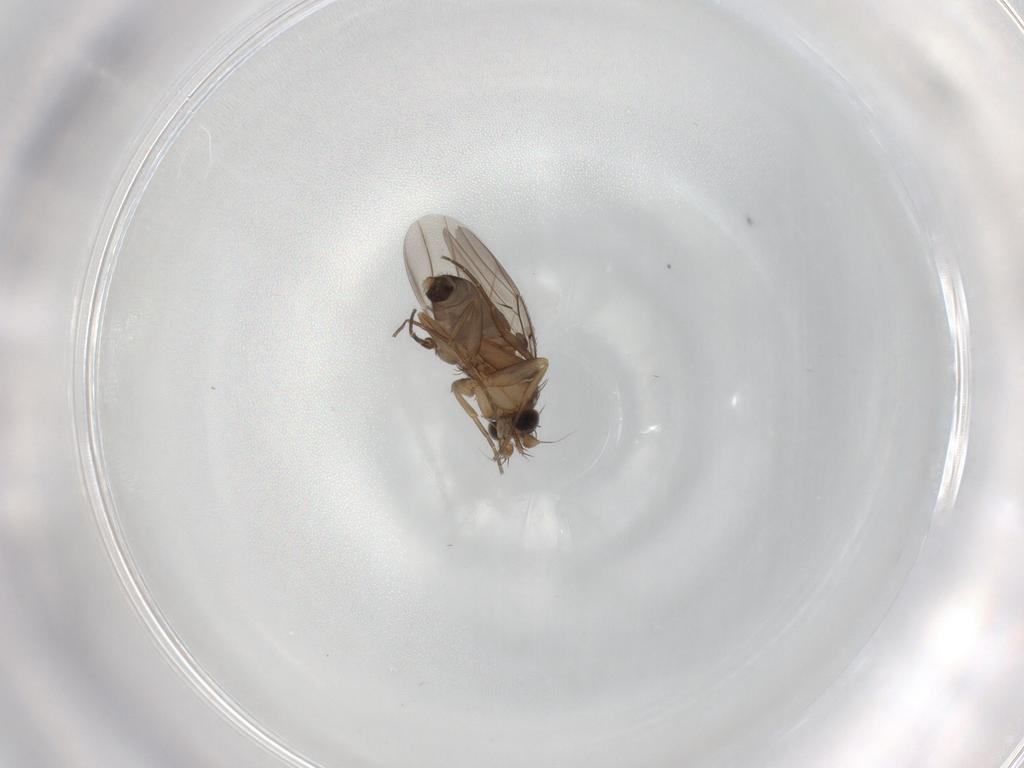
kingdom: Animalia
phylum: Arthropoda
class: Insecta
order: Diptera
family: Phoridae
